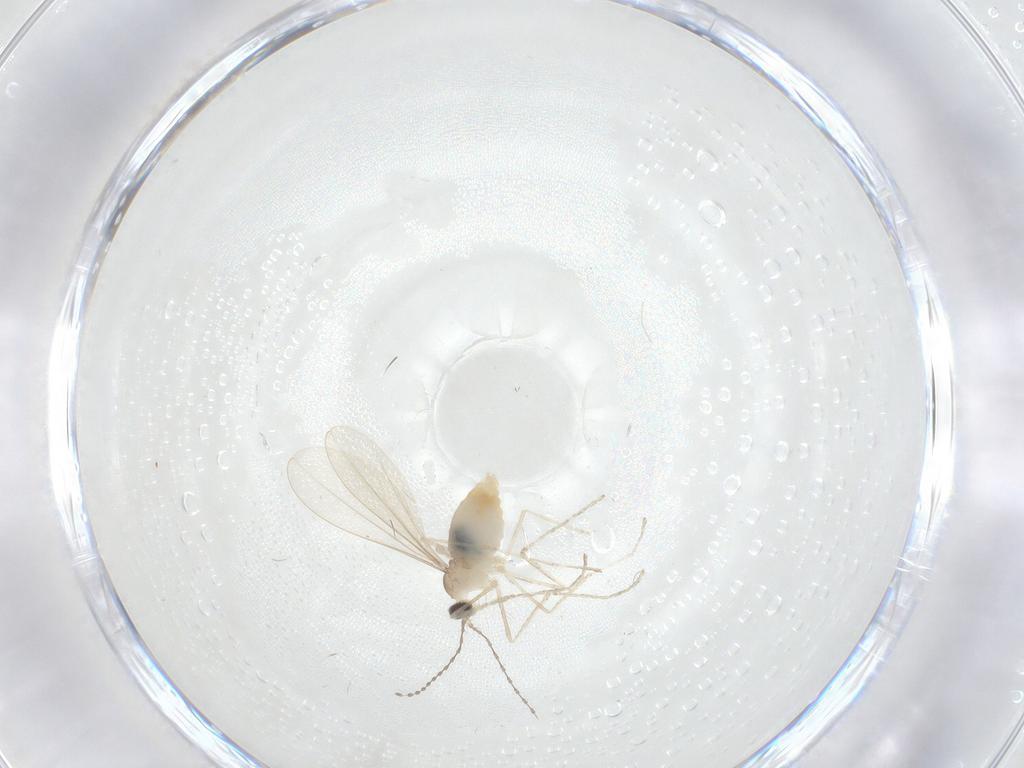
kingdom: Animalia
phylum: Arthropoda
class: Insecta
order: Diptera
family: Cecidomyiidae
